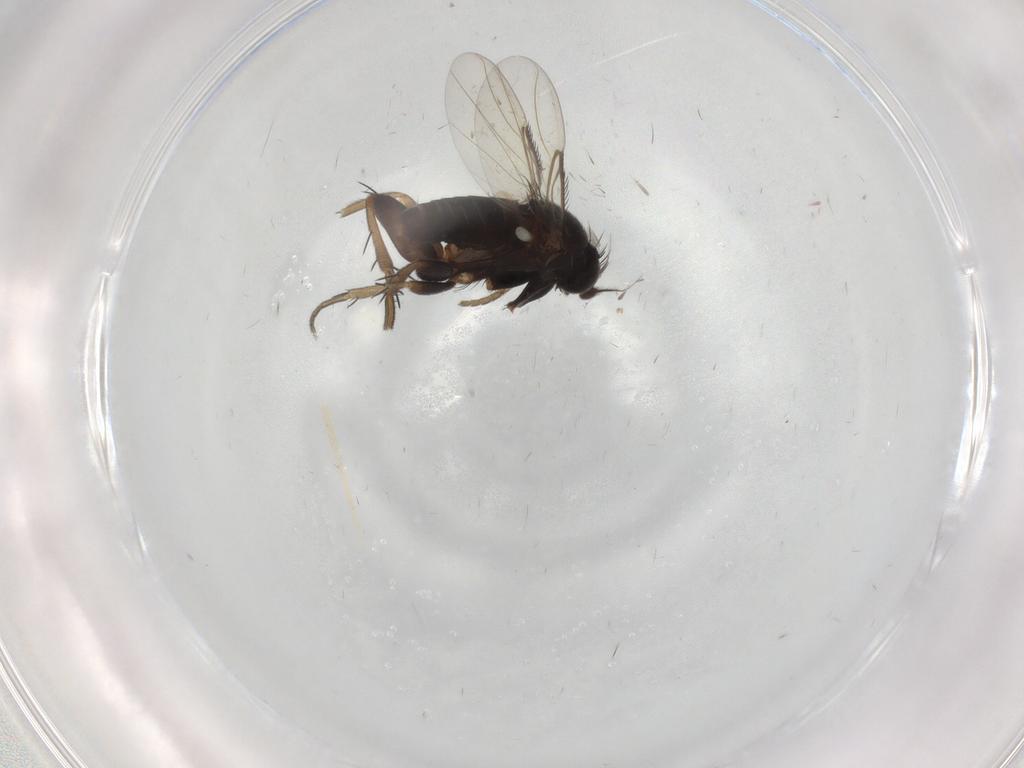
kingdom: Animalia
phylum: Arthropoda
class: Insecta
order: Diptera
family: Phoridae
